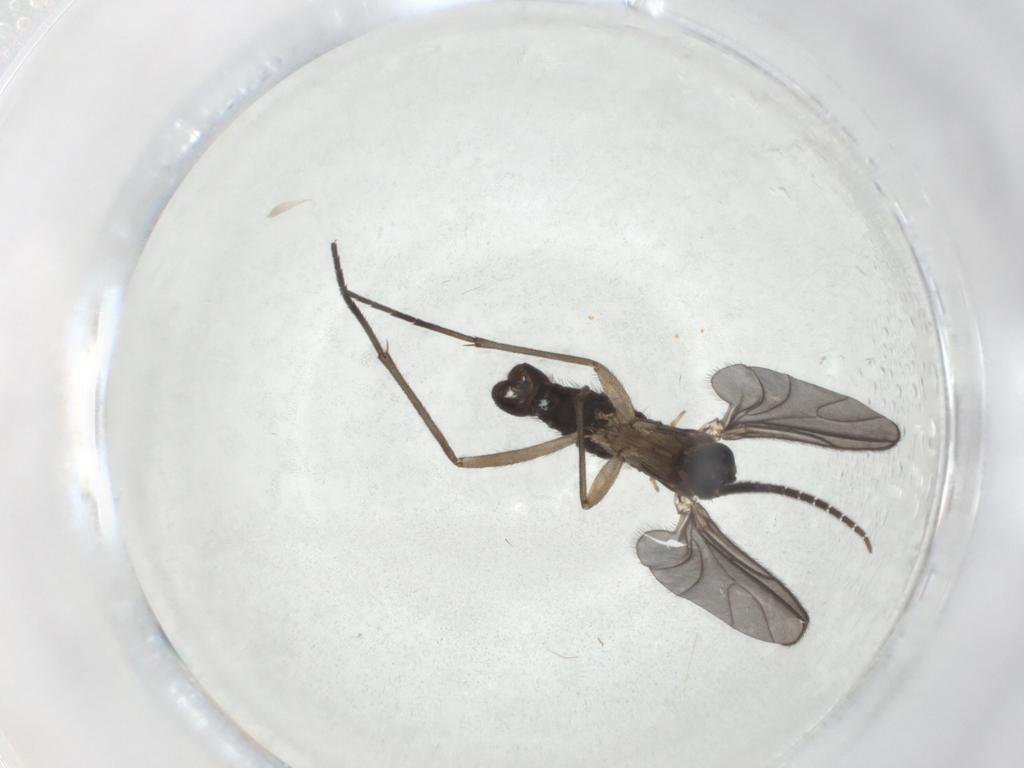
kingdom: Animalia
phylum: Arthropoda
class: Insecta
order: Diptera
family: Sciaridae
